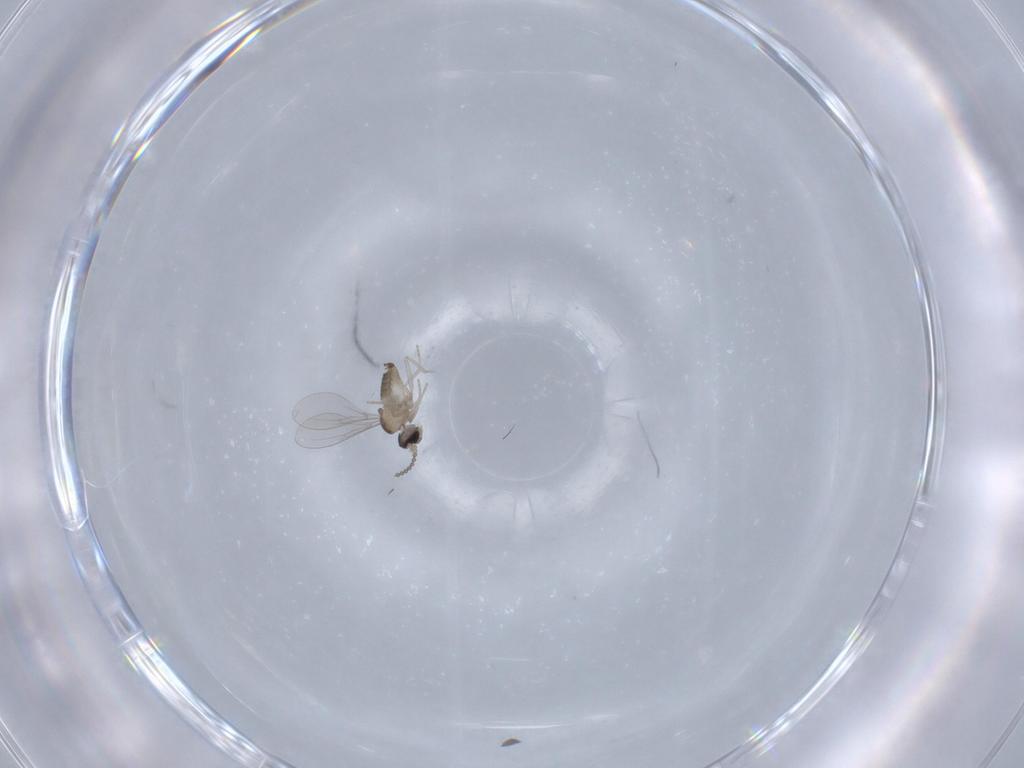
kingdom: Animalia
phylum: Arthropoda
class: Insecta
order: Diptera
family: Cecidomyiidae
